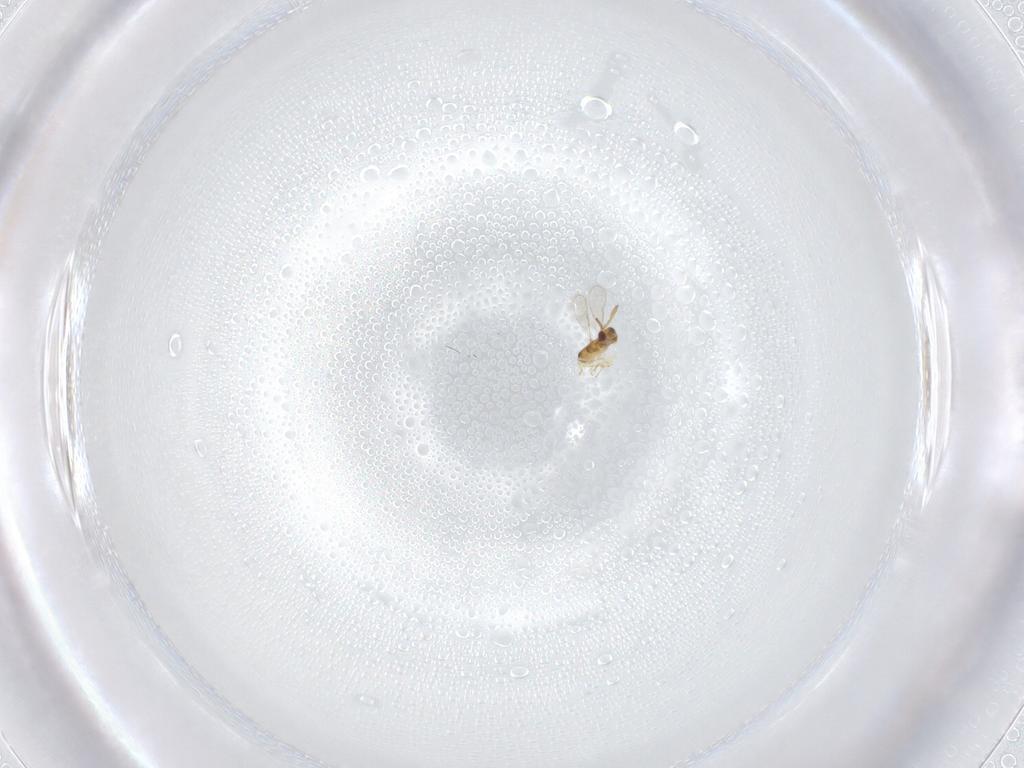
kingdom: Animalia
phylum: Arthropoda
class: Insecta
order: Hymenoptera
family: Aphelinidae
